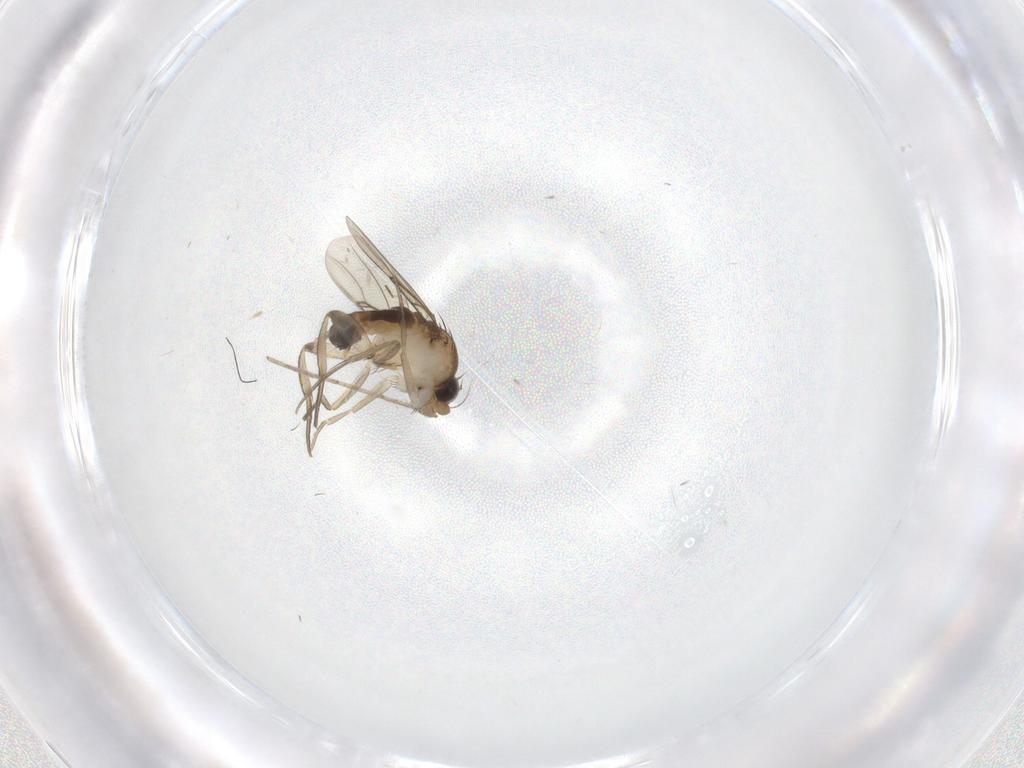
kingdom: Animalia
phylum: Arthropoda
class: Insecta
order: Diptera
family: Phoridae
